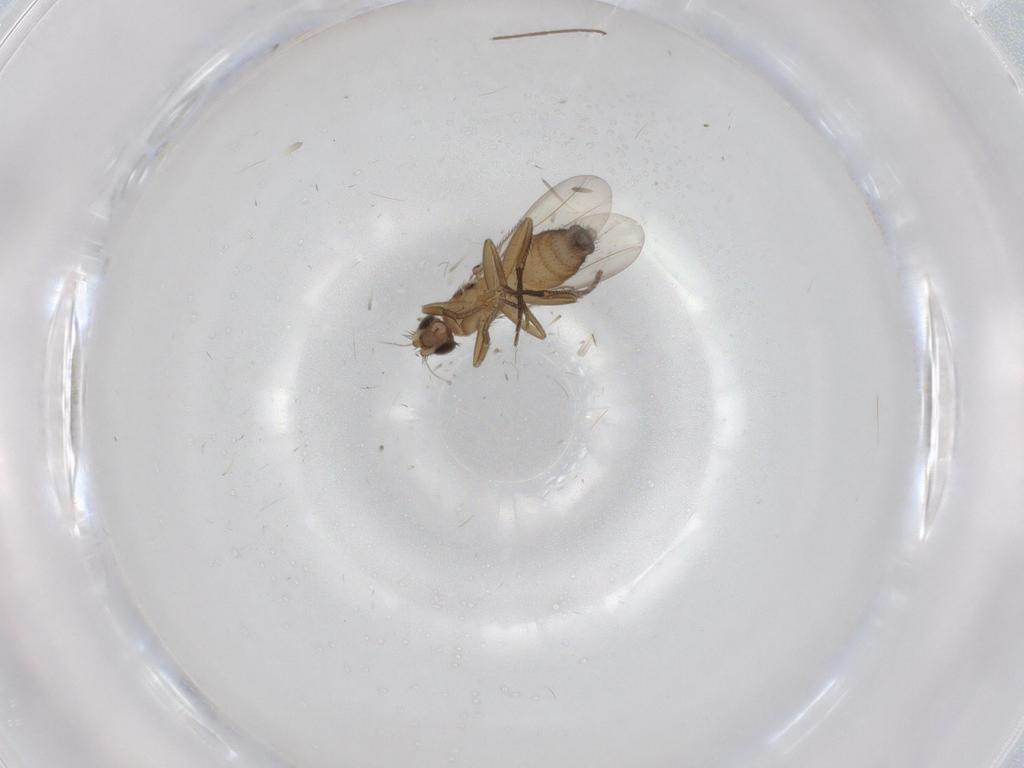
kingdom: Animalia
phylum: Arthropoda
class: Insecta
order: Diptera
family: Phoridae
